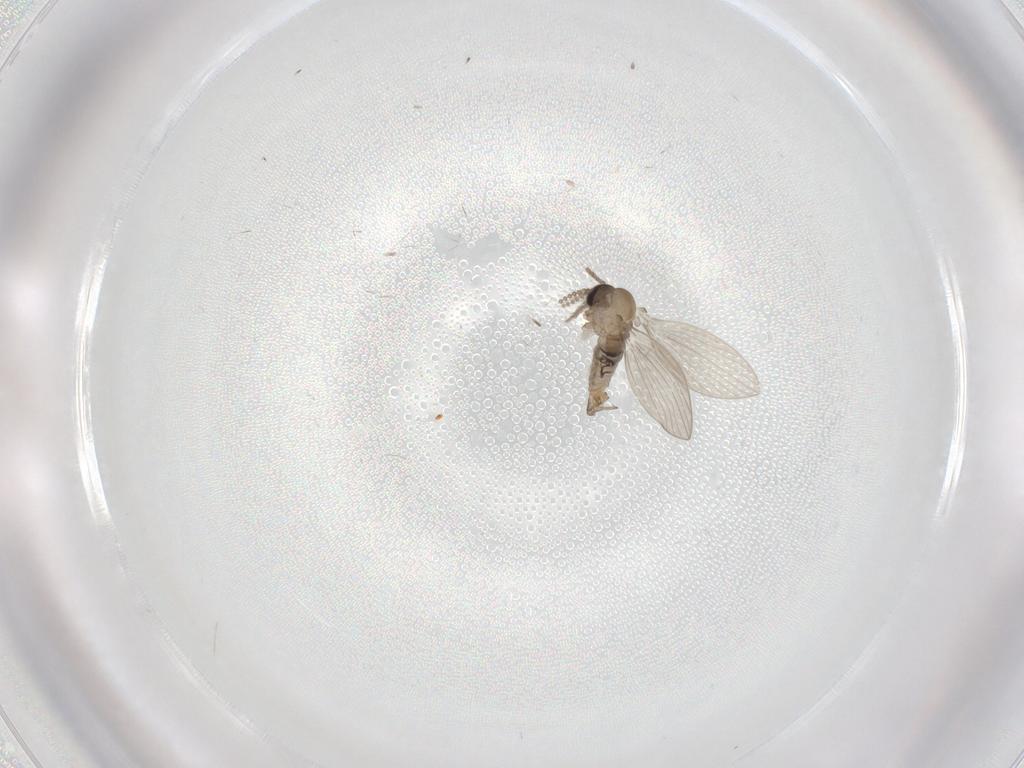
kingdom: Animalia
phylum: Arthropoda
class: Insecta
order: Diptera
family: Psychodidae
